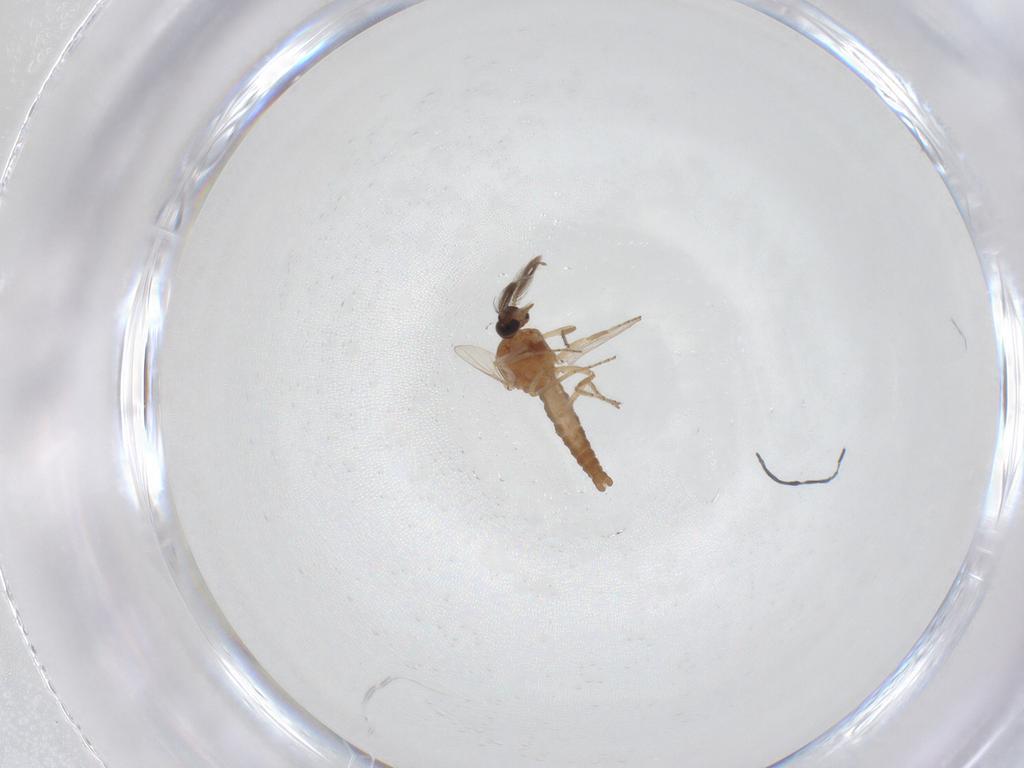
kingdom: Animalia
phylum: Arthropoda
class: Insecta
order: Diptera
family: Ceratopogonidae
